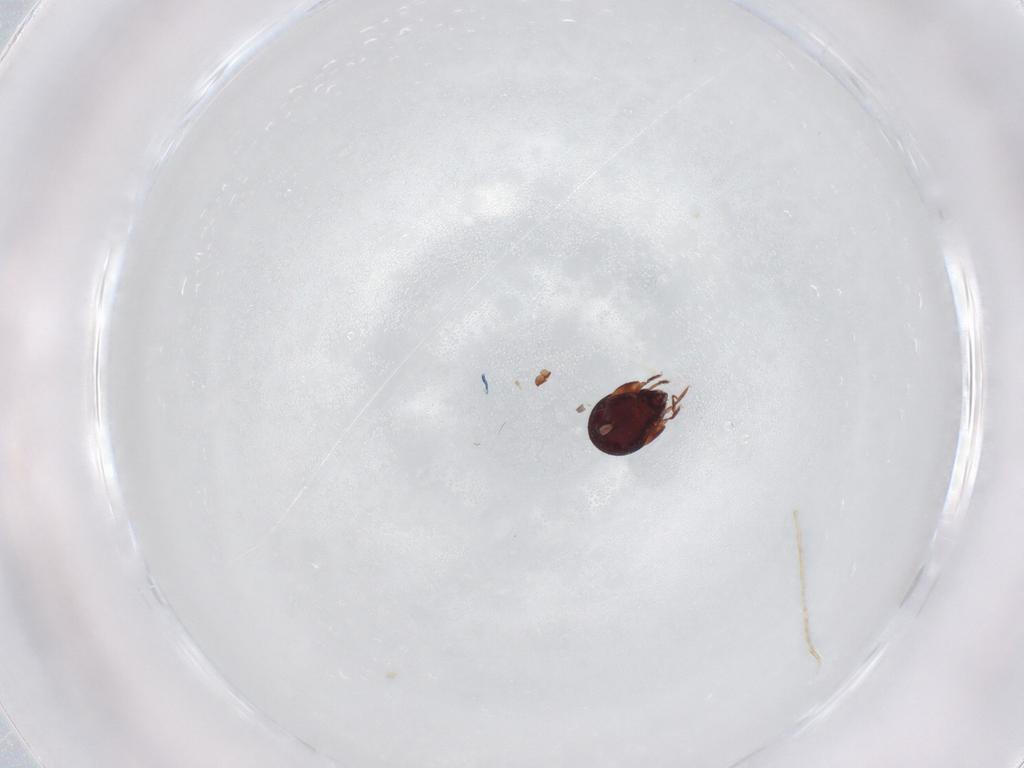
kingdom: Animalia
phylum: Arthropoda
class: Arachnida
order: Sarcoptiformes
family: Humerobatidae
